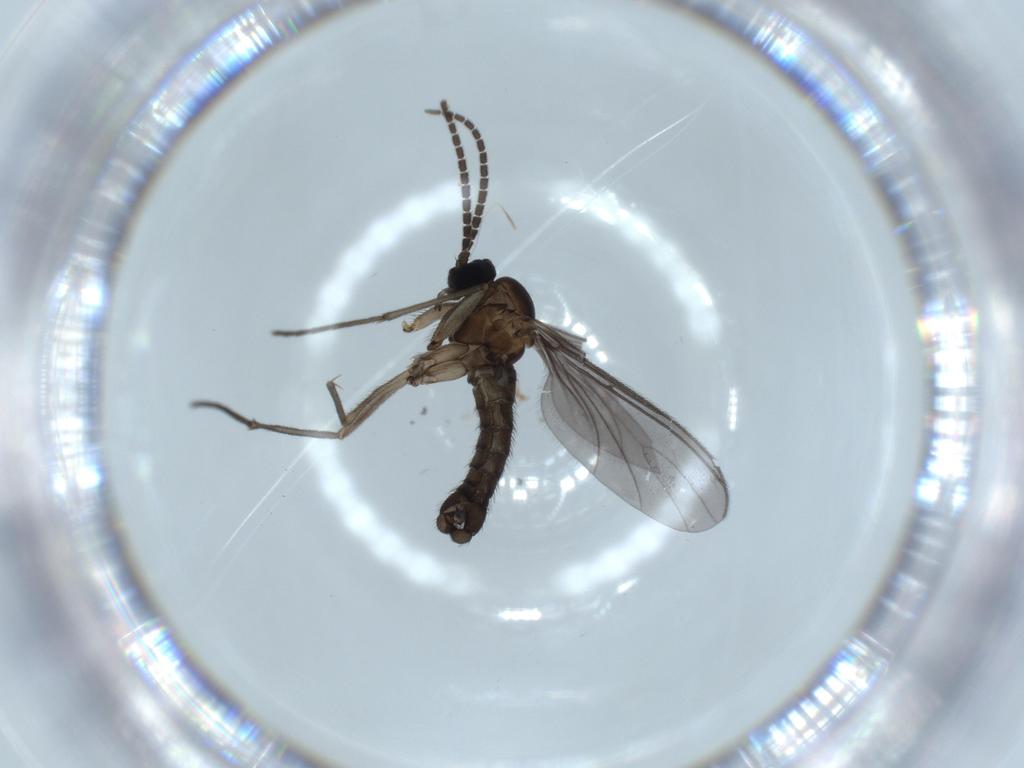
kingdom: Animalia
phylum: Arthropoda
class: Insecta
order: Diptera
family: Sciaridae
